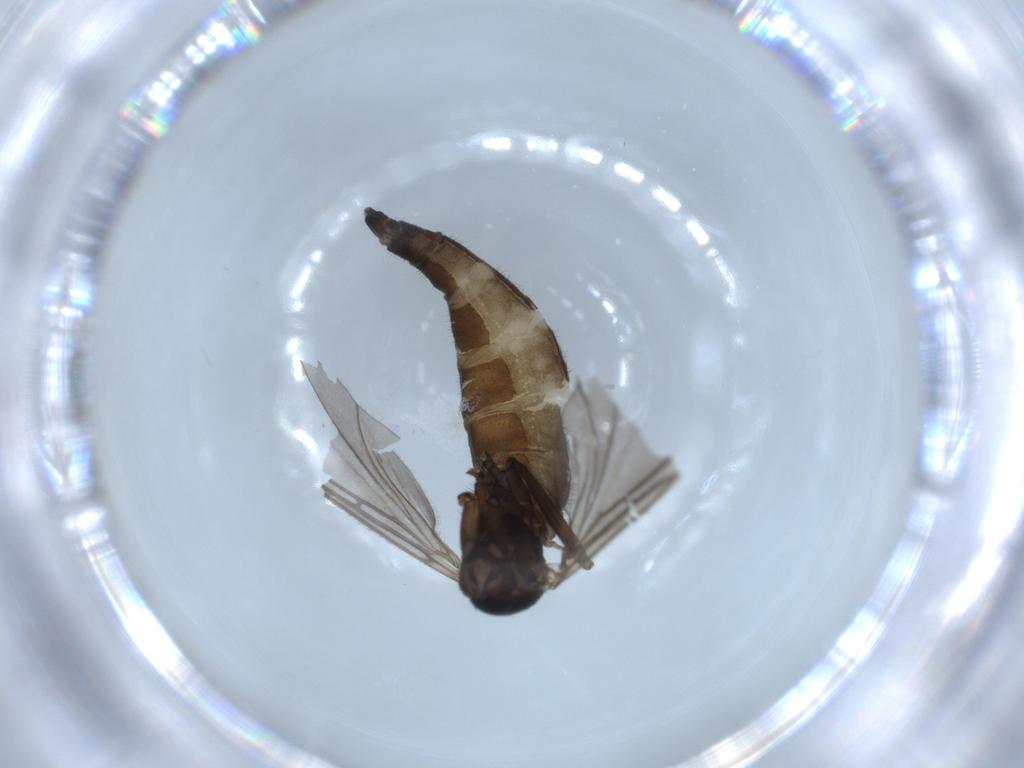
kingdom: Animalia
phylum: Arthropoda
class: Insecta
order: Diptera
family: Sciaridae
